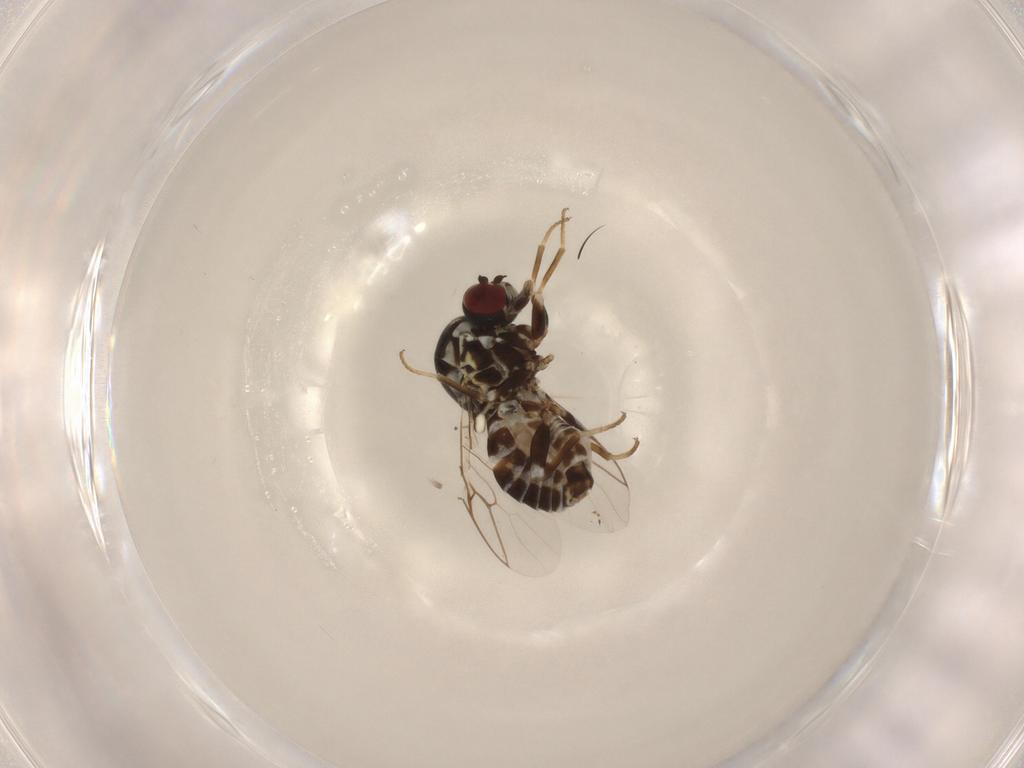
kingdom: Animalia
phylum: Arthropoda
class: Insecta
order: Diptera
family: Bombyliidae
